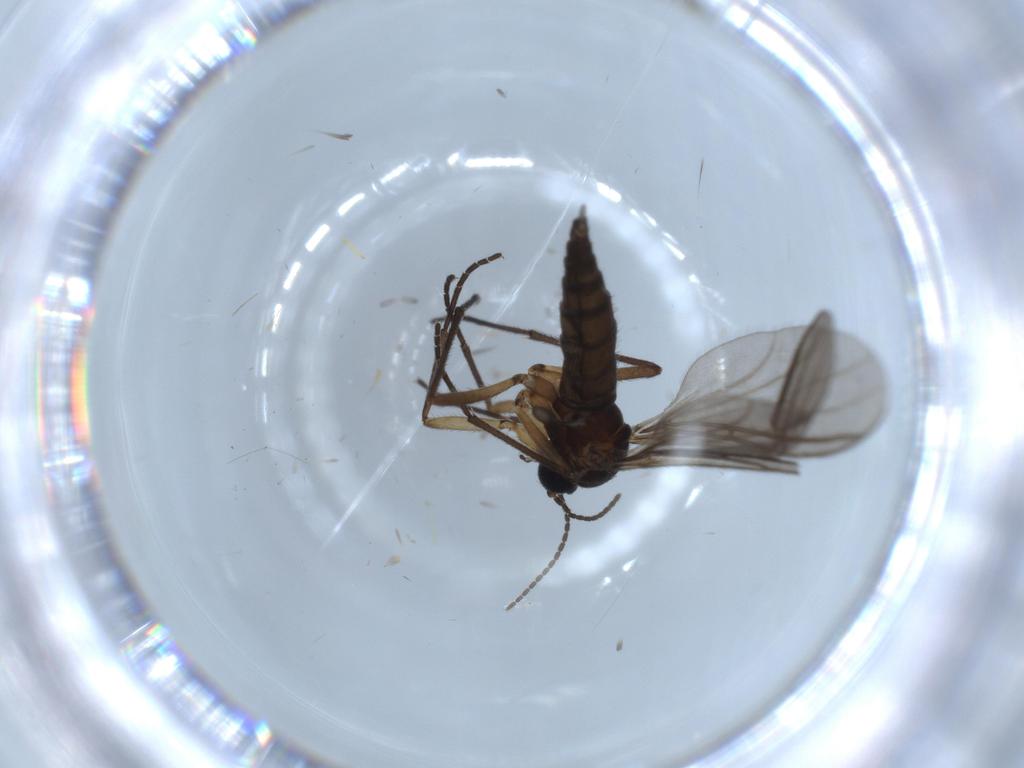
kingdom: Animalia
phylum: Arthropoda
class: Insecta
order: Diptera
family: Sciaridae
